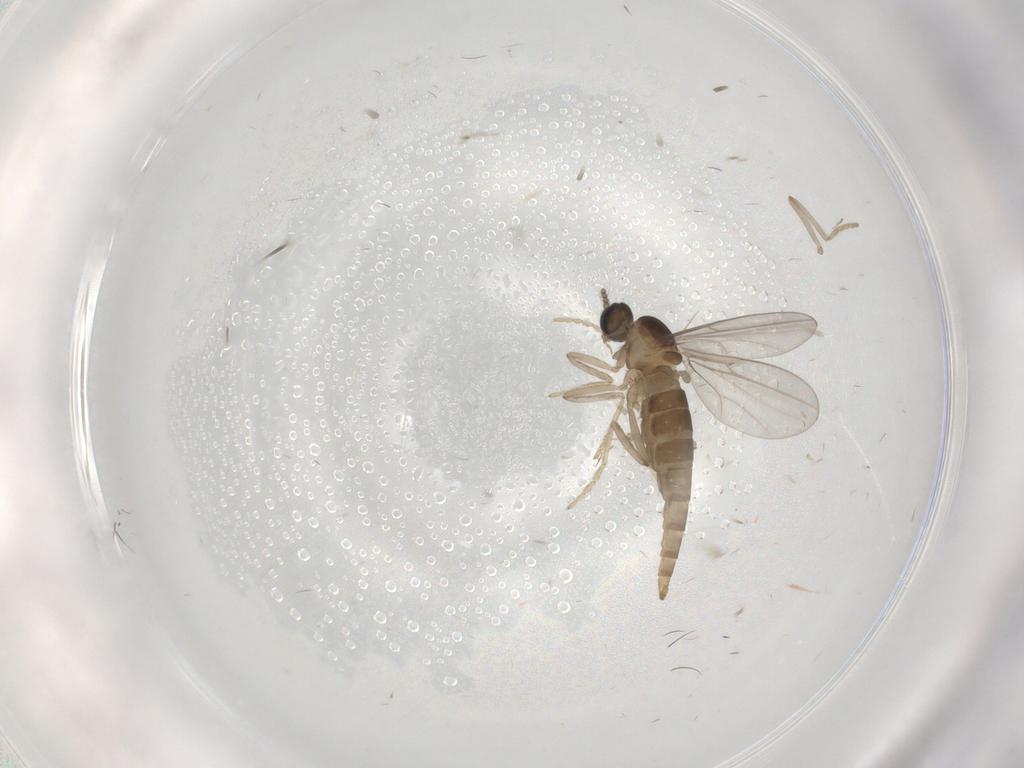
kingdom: Animalia
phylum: Arthropoda
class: Insecta
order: Diptera
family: Cecidomyiidae
